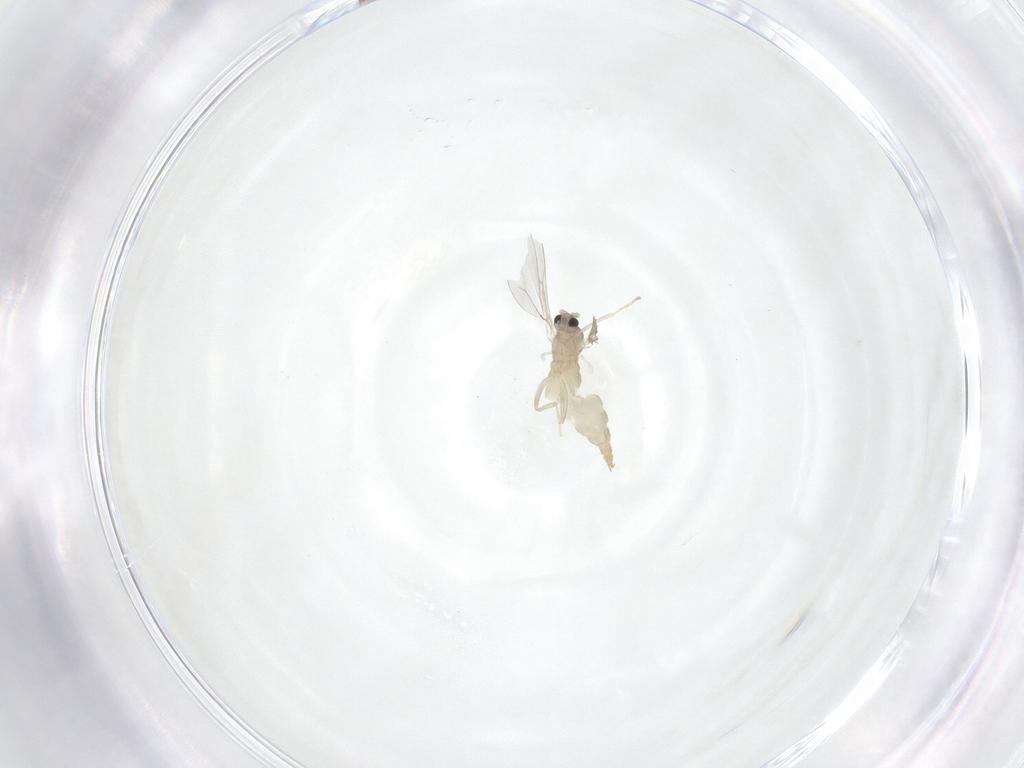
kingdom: Animalia
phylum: Arthropoda
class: Insecta
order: Diptera
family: Cecidomyiidae
